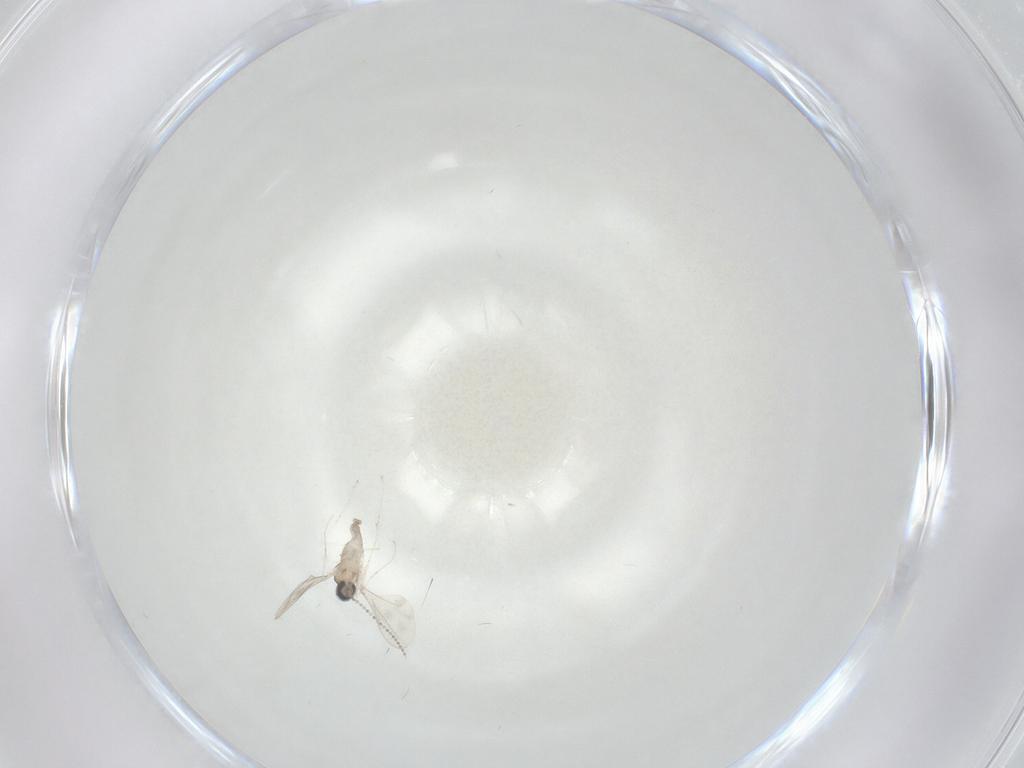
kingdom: Animalia
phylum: Arthropoda
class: Insecta
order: Diptera
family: Cecidomyiidae
